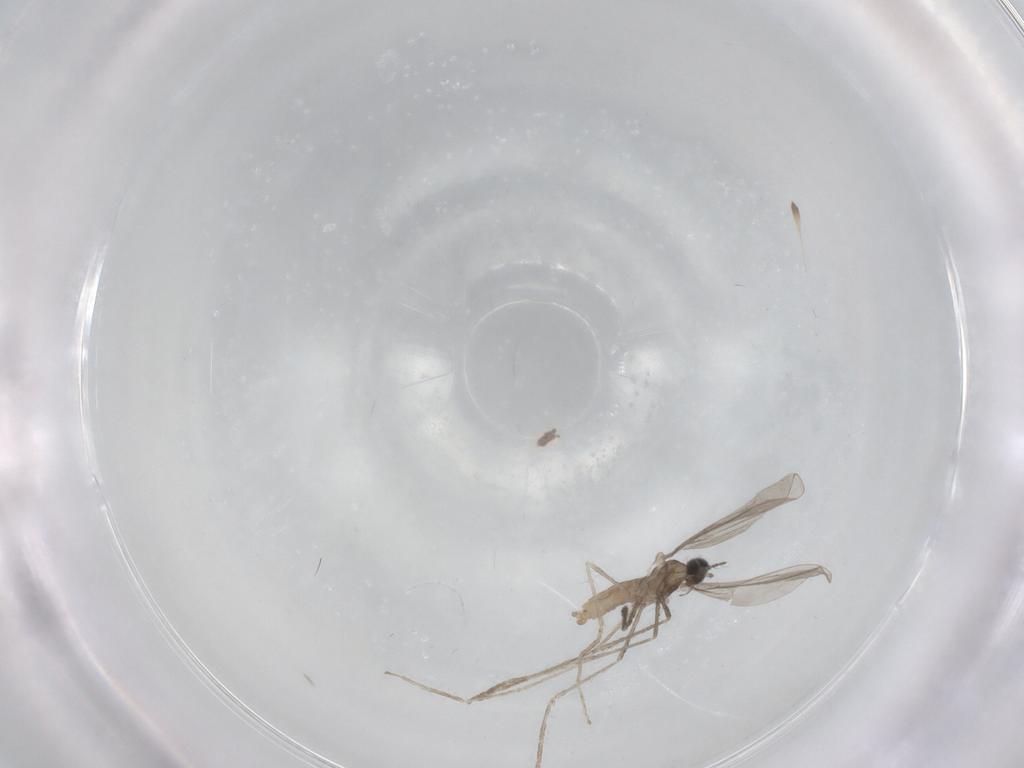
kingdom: Animalia
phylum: Arthropoda
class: Insecta
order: Diptera
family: Cecidomyiidae
